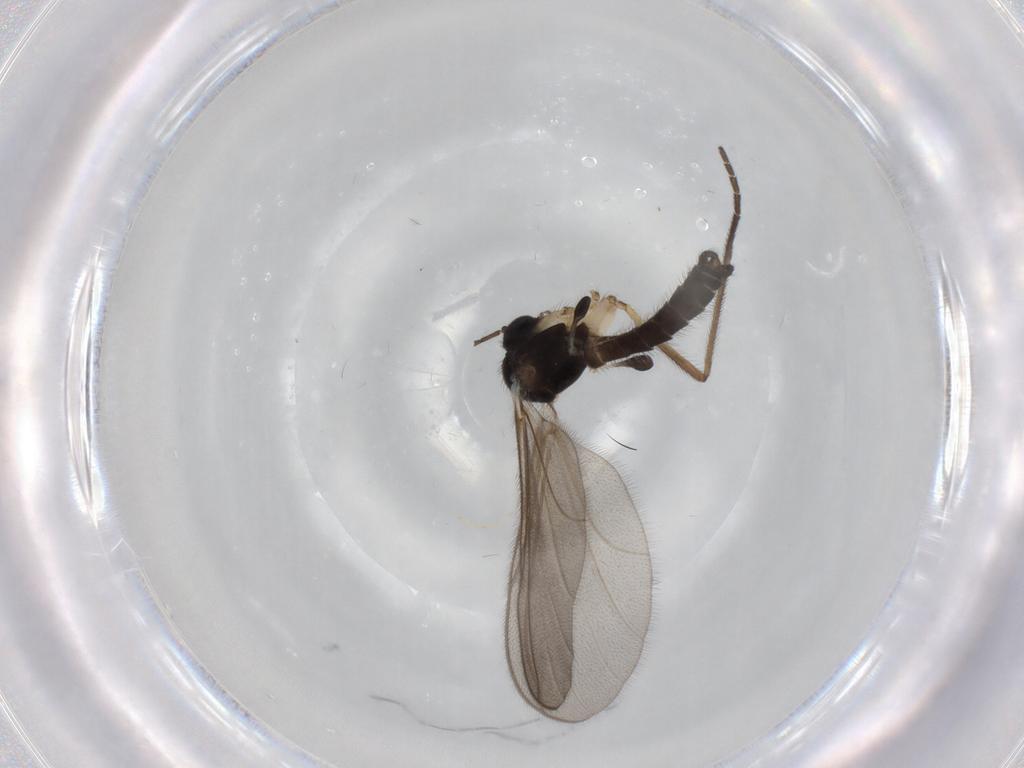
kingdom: Animalia
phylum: Arthropoda
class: Insecta
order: Diptera
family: Mycetophilidae
